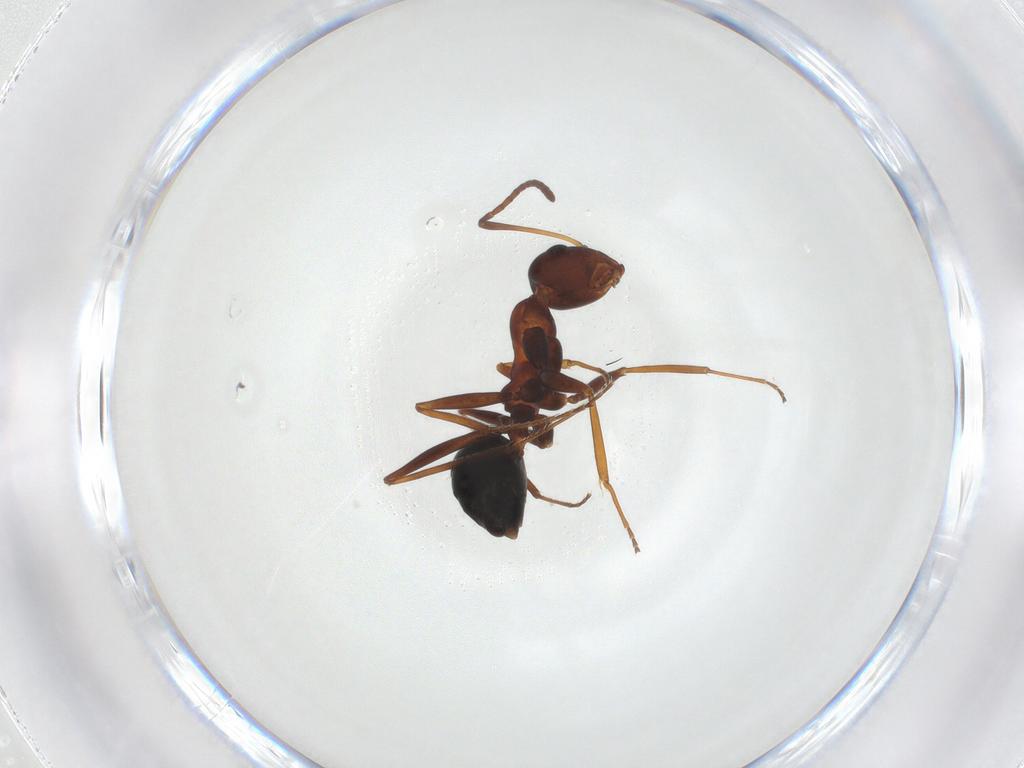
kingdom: Animalia
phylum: Arthropoda
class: Insecta
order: Hymenoptera
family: Formicidae
